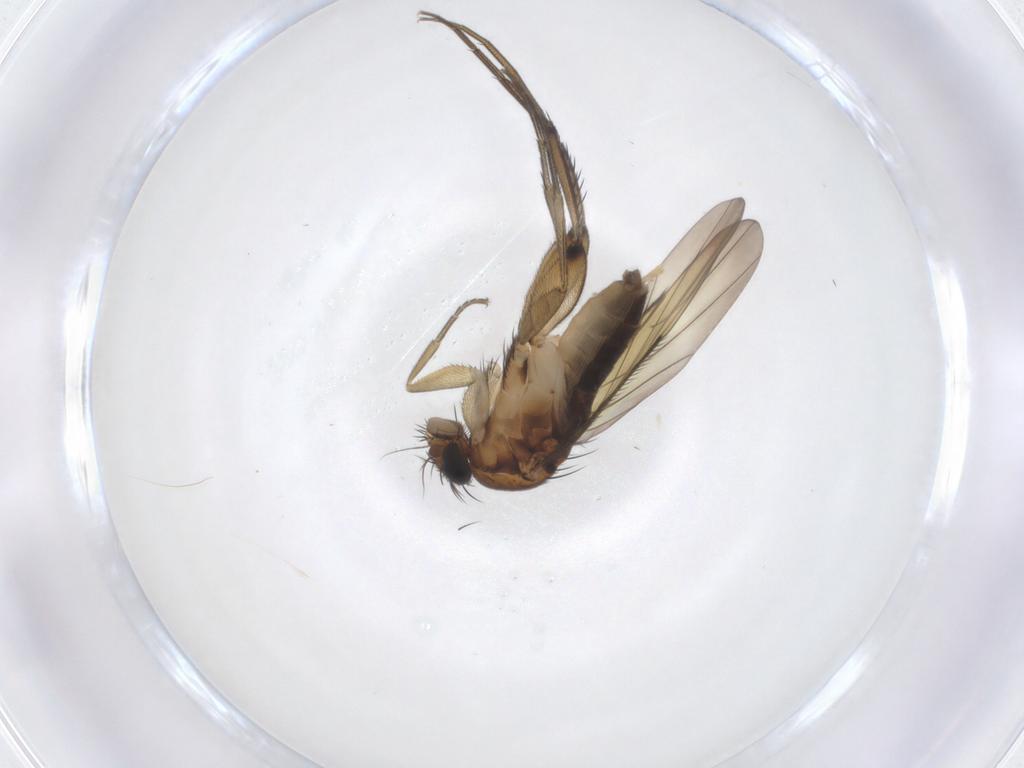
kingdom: Animalia
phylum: Arthropoda
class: Insecta
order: Diptera
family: Phoridae
